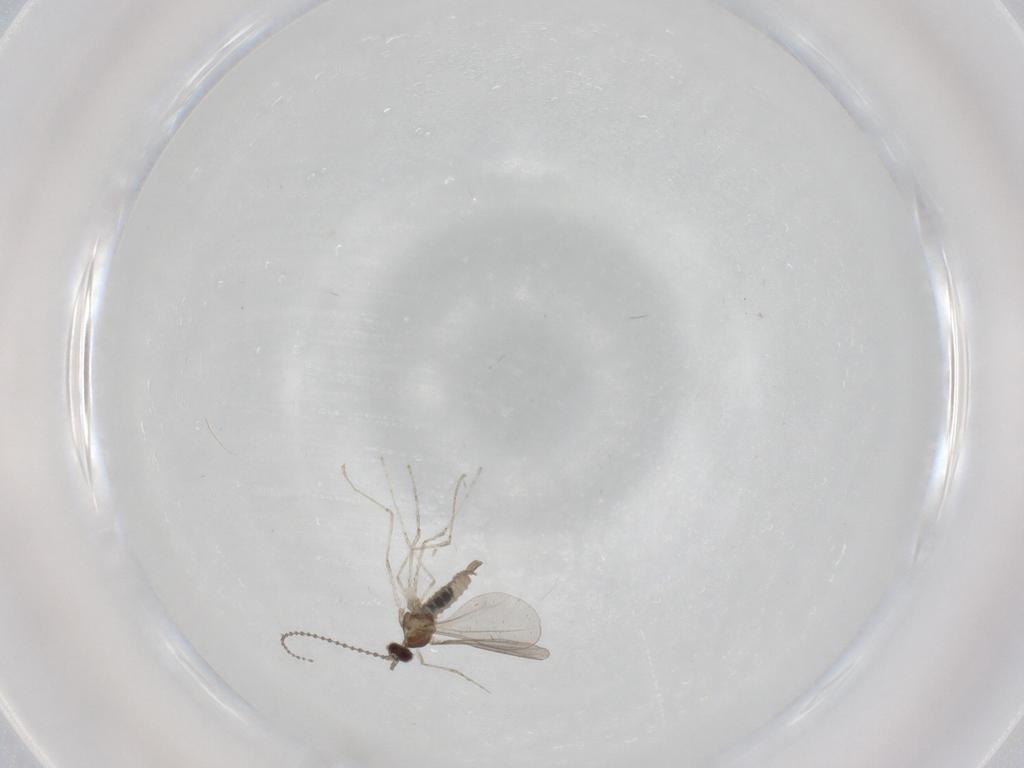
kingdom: Animalia
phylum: Arthropoda
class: Insecta
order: Diptera
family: Cecidomyiidae
